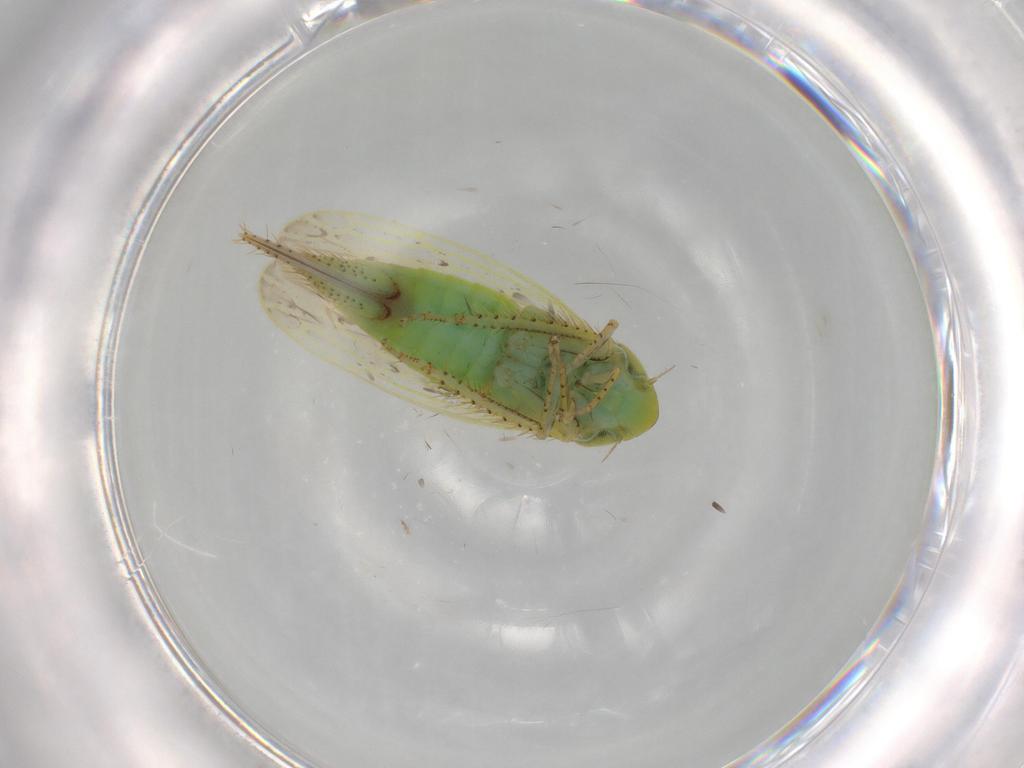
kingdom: Animalia
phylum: Arthropoda
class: Insecta
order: Hemiptera
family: Cicadellidae
